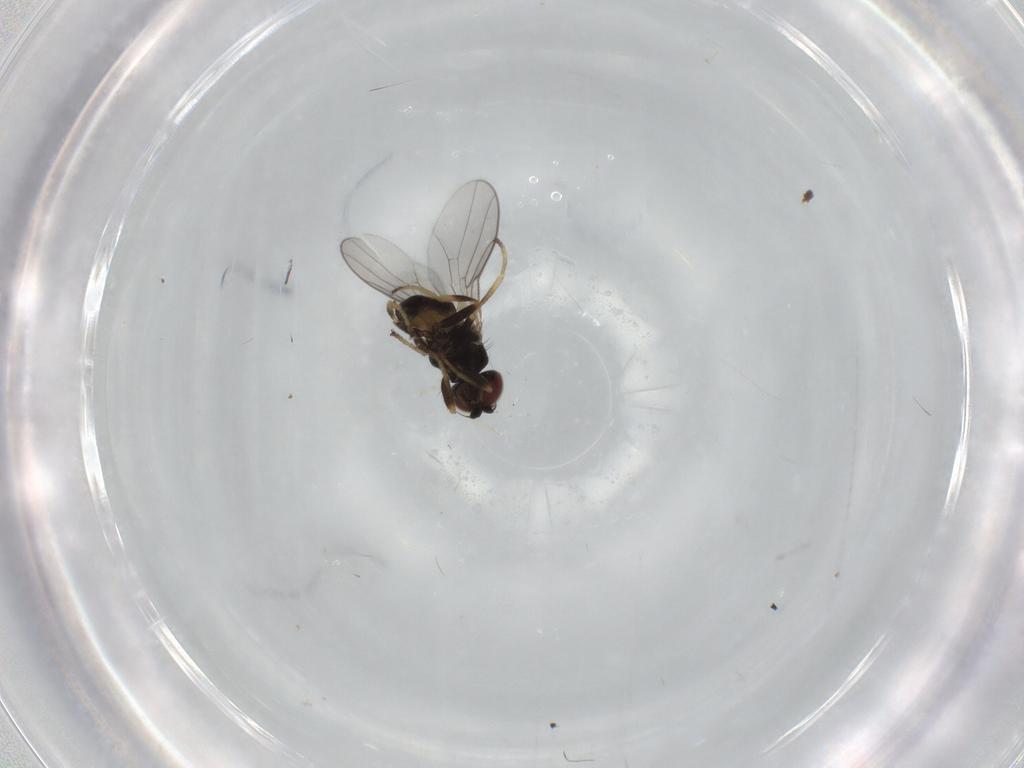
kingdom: Animalia
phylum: Arthropoda
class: Insecta
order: Diptera
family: Chloropidae
